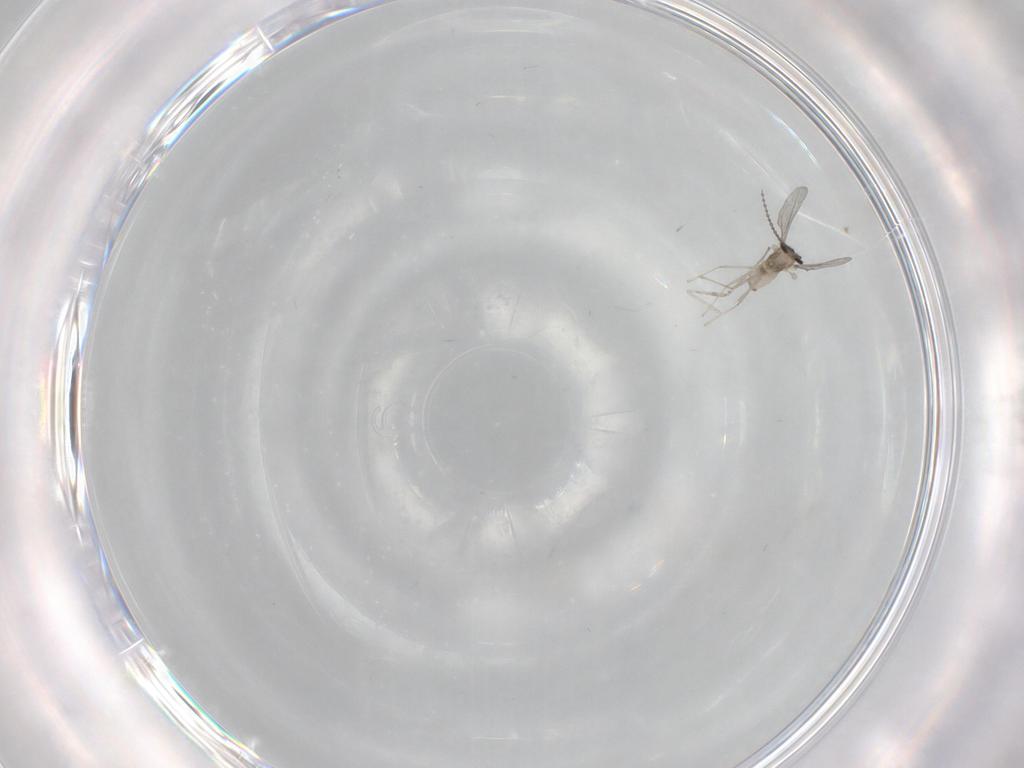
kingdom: Animalia
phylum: Arthropoda
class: Insecta
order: Diptera
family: Cecidomyiidae
